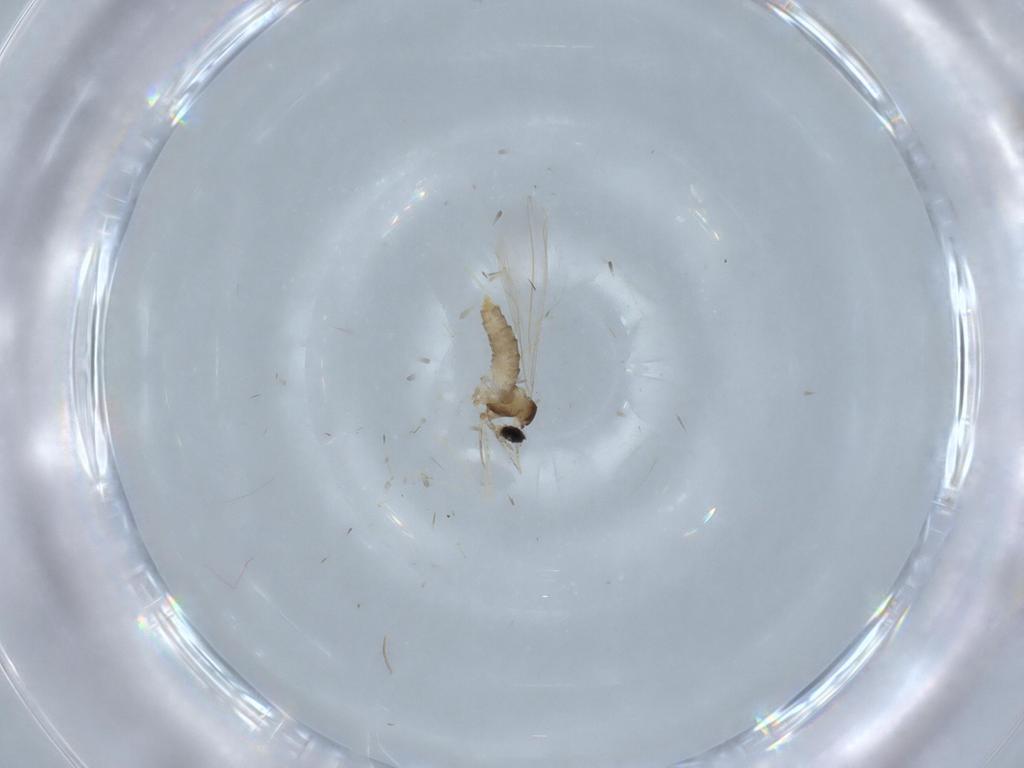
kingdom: Animalia
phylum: Arthropoda
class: Insecta
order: Diptera
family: Cecidomyiidae
